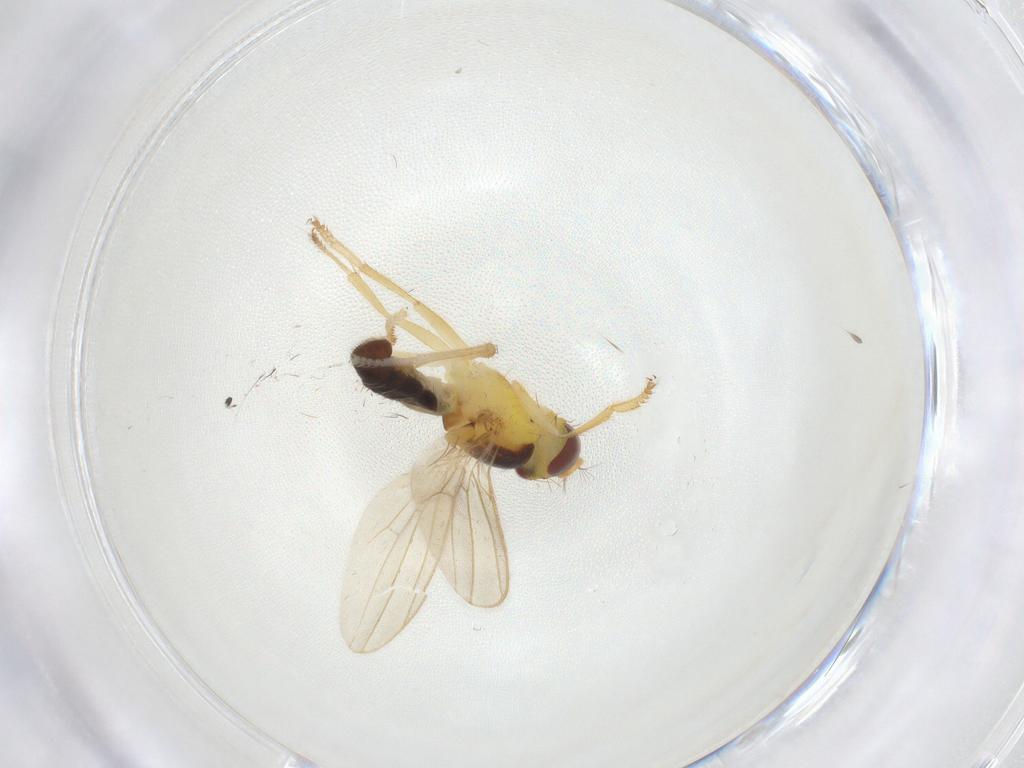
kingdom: Animalia
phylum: Arthropoda
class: Insecta
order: Diptera
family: Periscelididae
